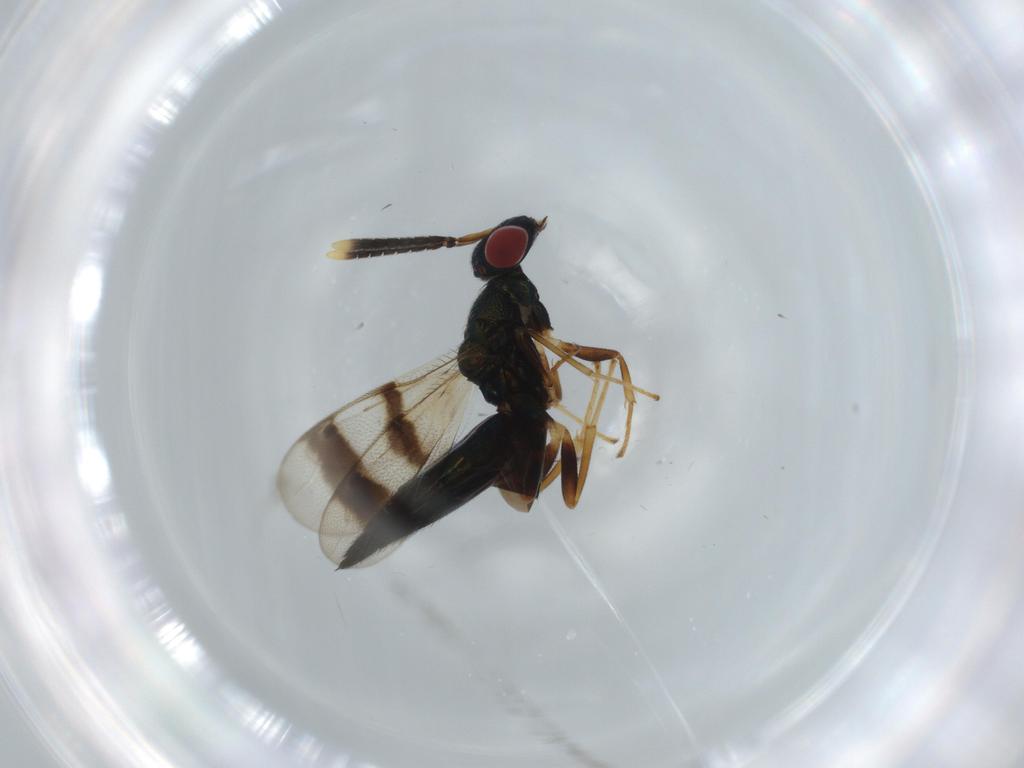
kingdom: Animalia
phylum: Arthropoda
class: Insecta
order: Hymenoptera
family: Pteromalidae
